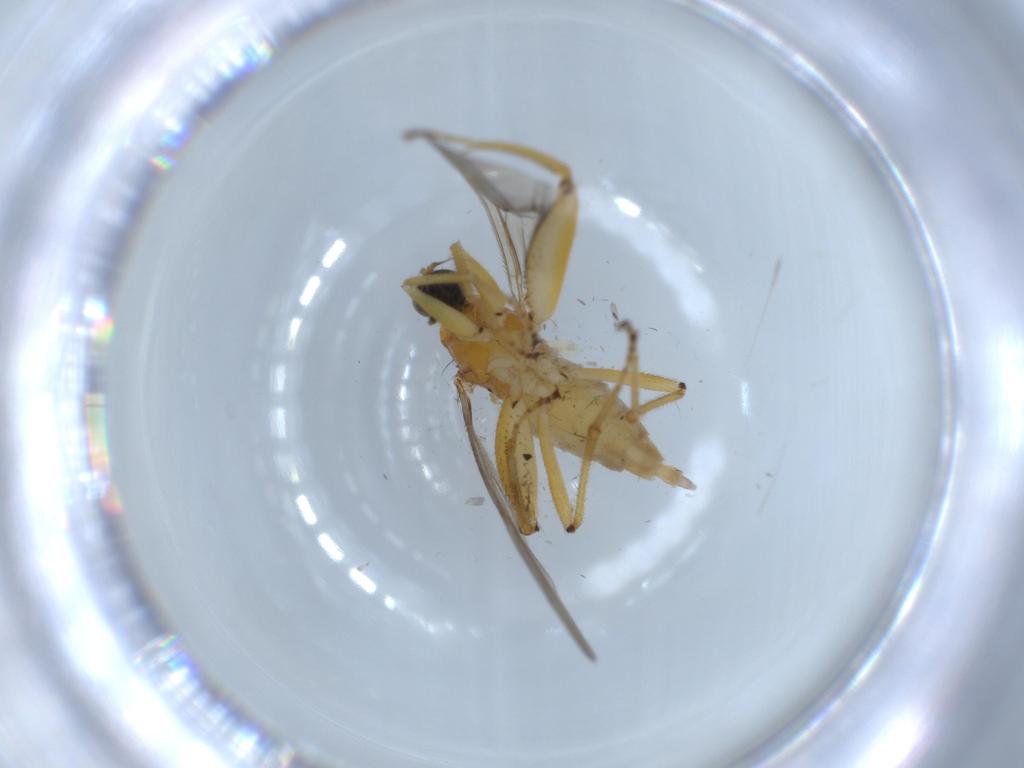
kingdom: Animalia
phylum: Arthropoda
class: Insecta
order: Diptera
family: Hybotidae
